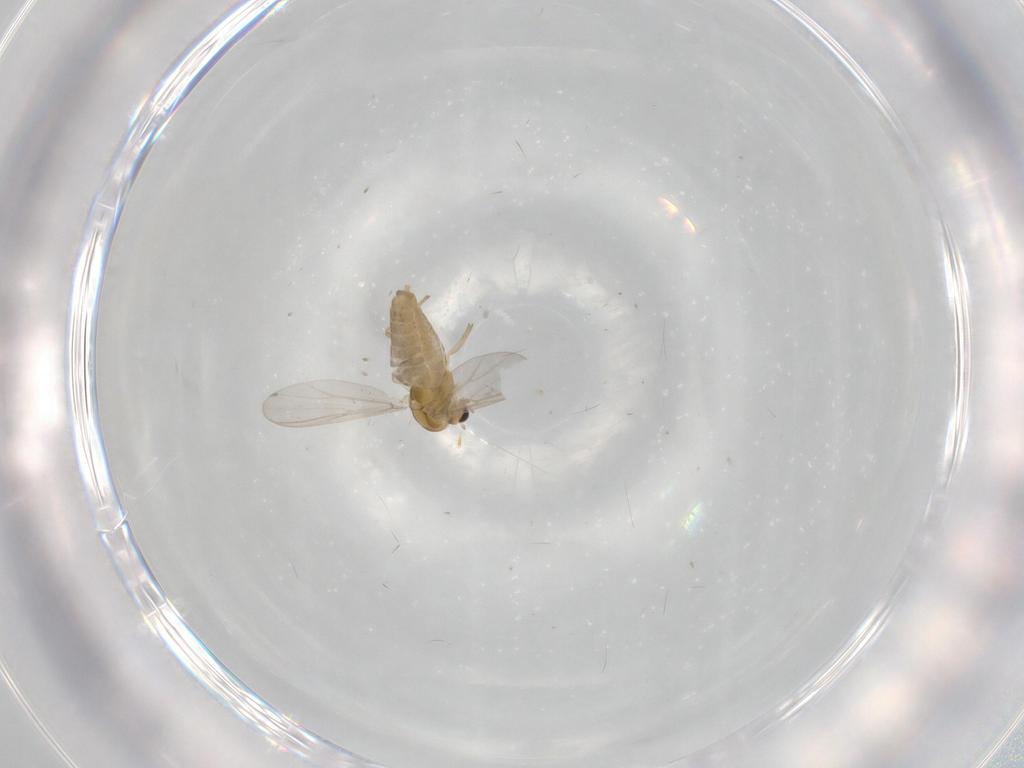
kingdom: Animalia
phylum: Arthropoda
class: Insecta
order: Diptera
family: Chironomidae
